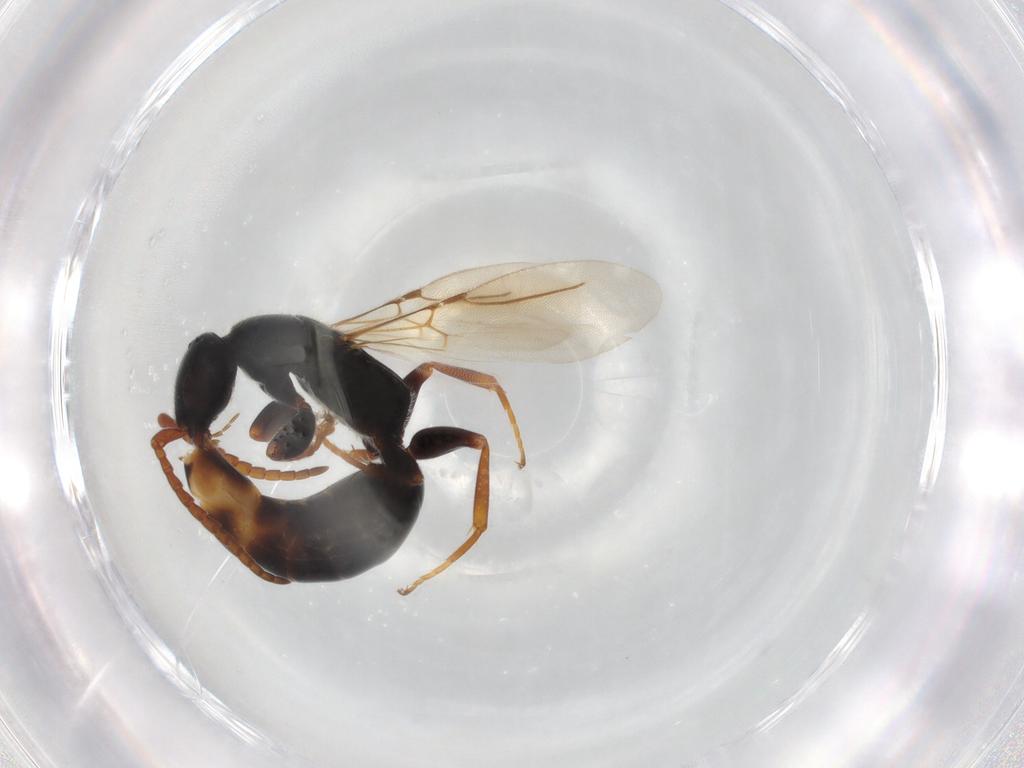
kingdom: Animalia
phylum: Arthropoda
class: Insecta
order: Hymenoptera
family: Bethylidae
